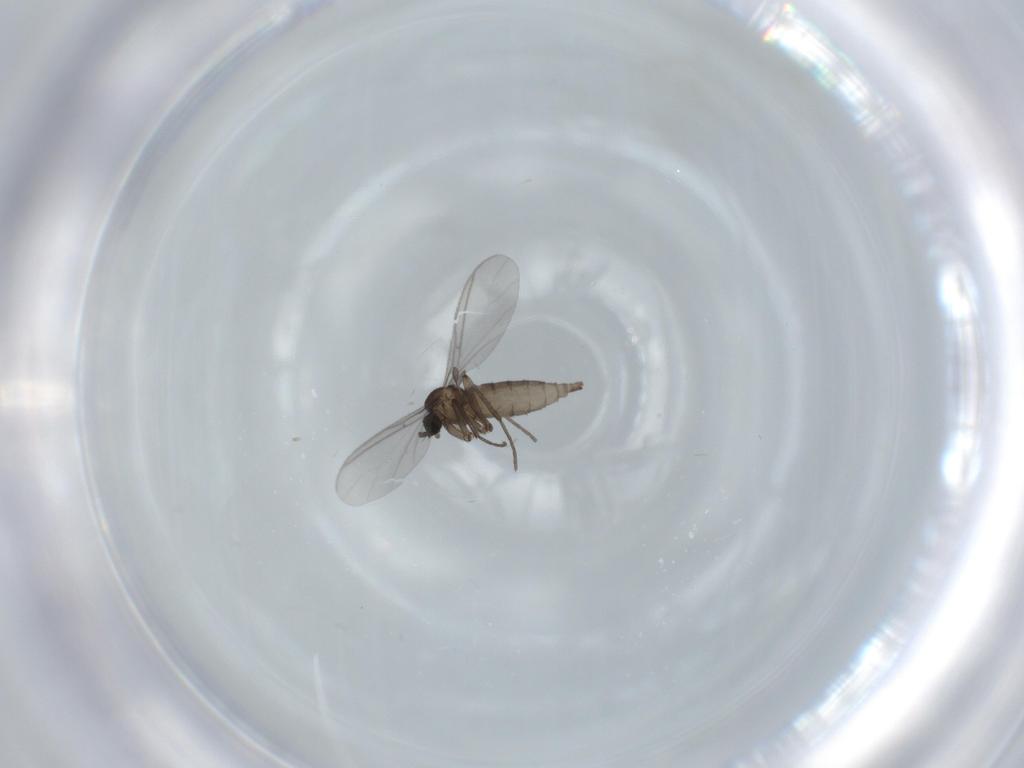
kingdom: Animalia
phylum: Arthropoda
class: Insecta
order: Diptera
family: Sciaridae
